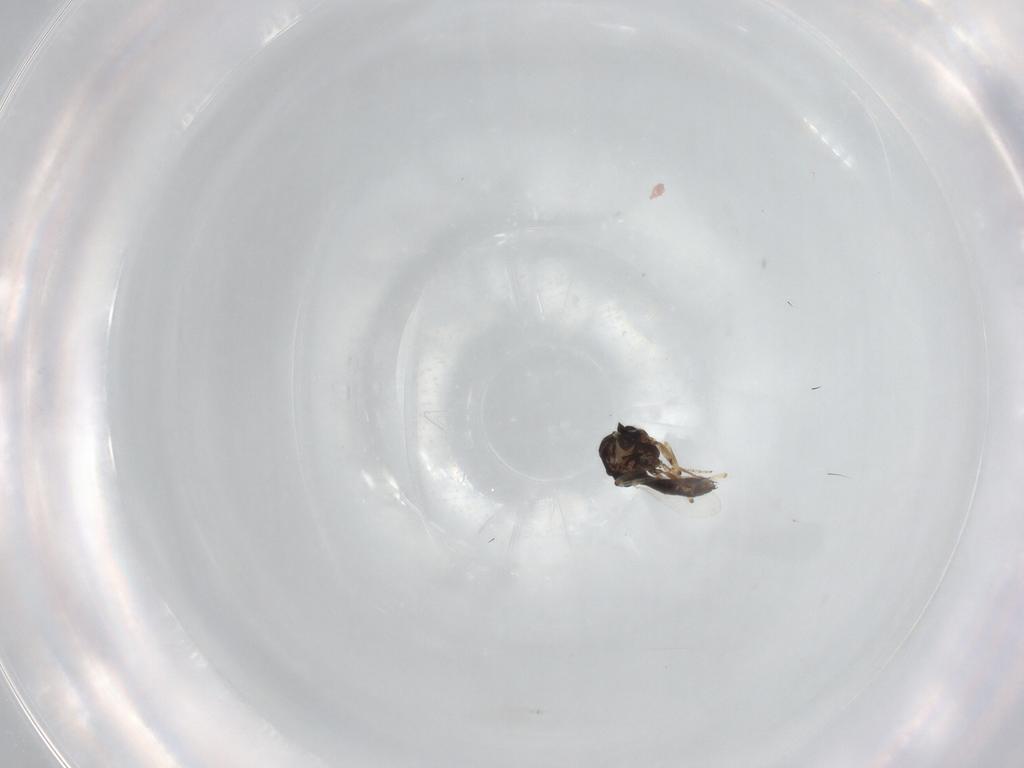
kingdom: Animalia
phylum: Arthropoda
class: Insecta
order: Diptera
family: Ceratopogonidae
